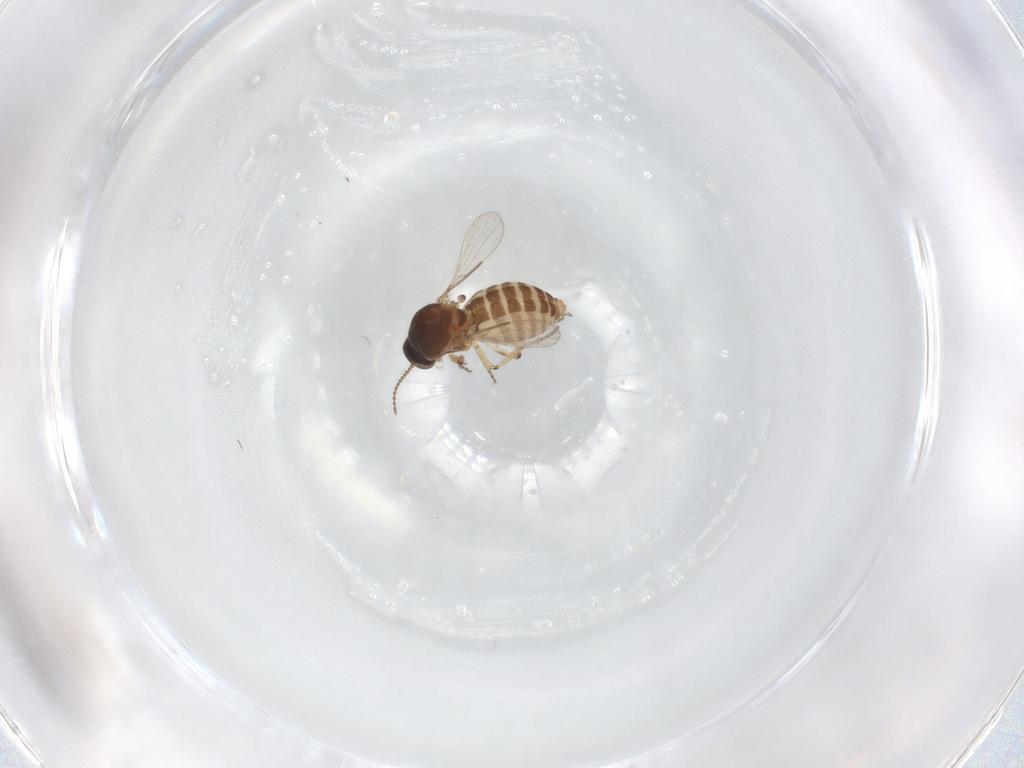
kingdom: Animalia
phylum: Arthropoda
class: Insecta
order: Diptera
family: Ceratopogonidae
